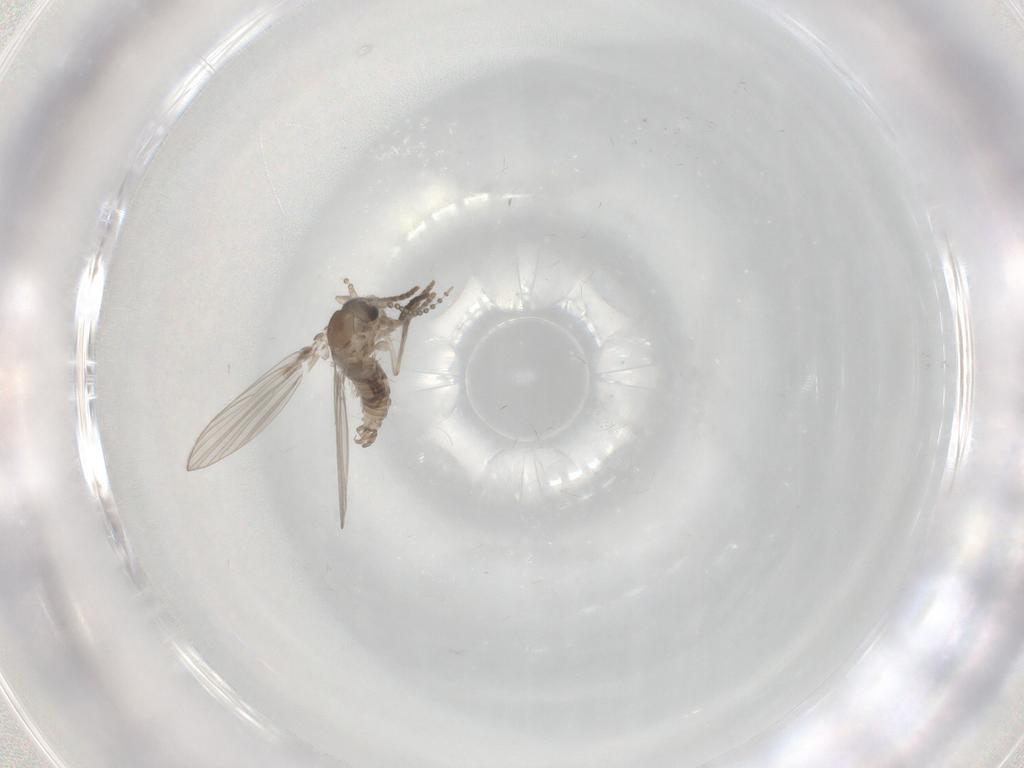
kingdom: Animalia
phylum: Arthropoda
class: Insecta
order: Diptera
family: Psychodidae
